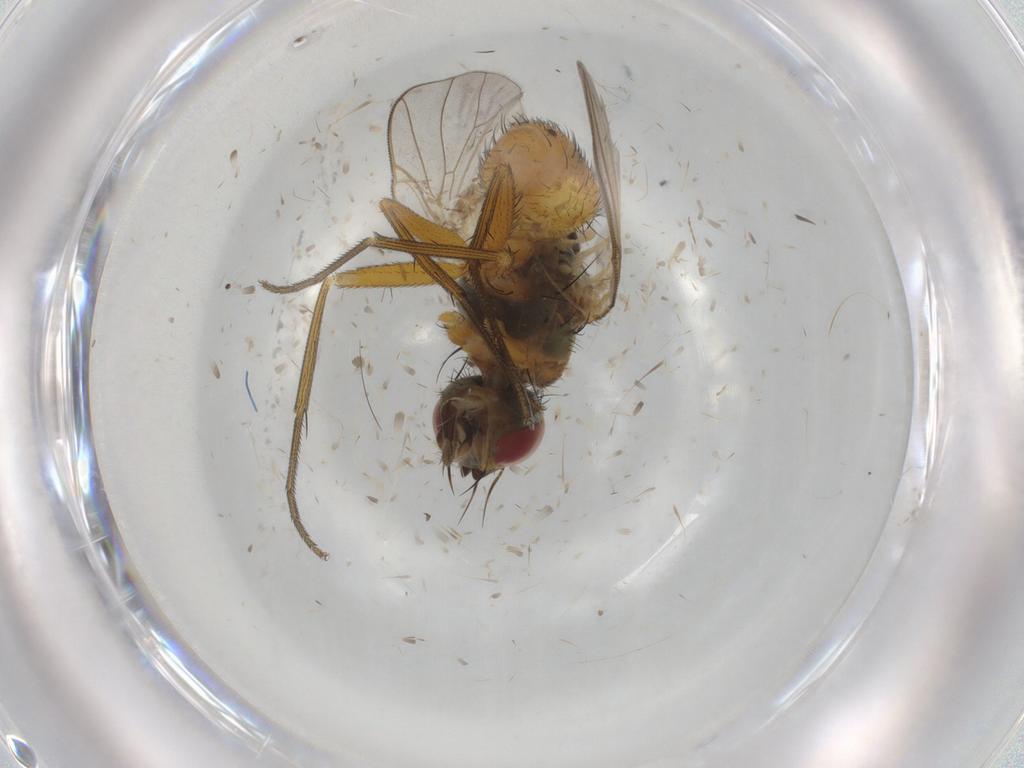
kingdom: Animalia
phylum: Arthropoda
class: Insecta
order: Diptera
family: Muscidae
